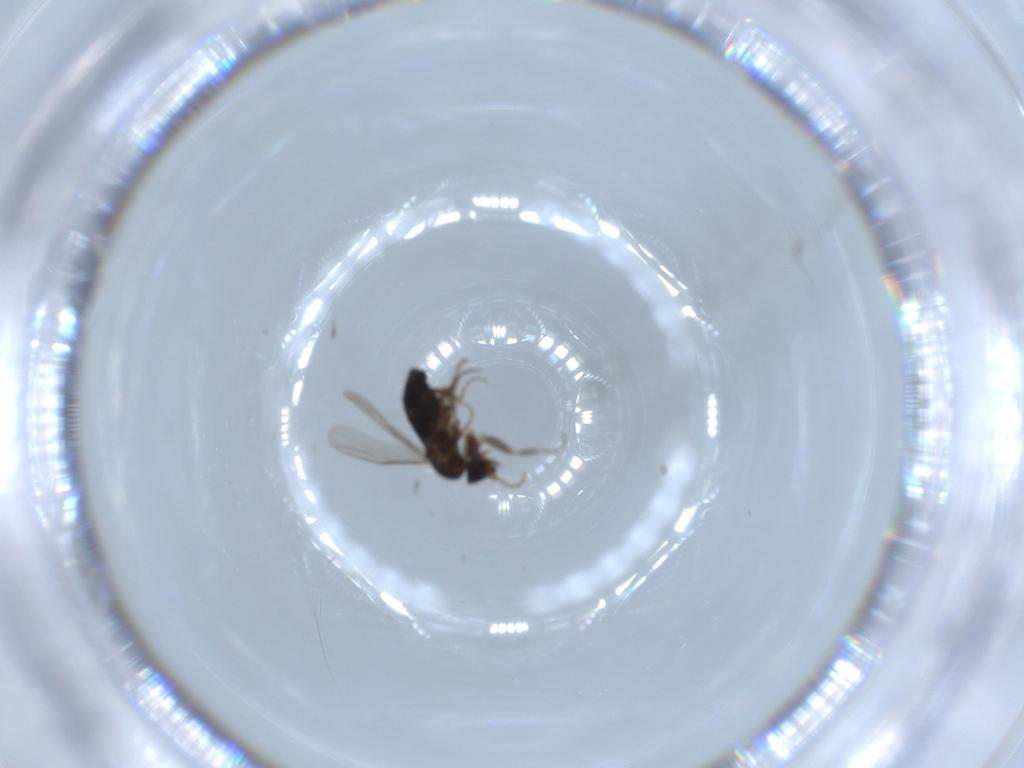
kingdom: Animalia
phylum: Arthropoda
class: Insecta
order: Diptera
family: Phoridae
